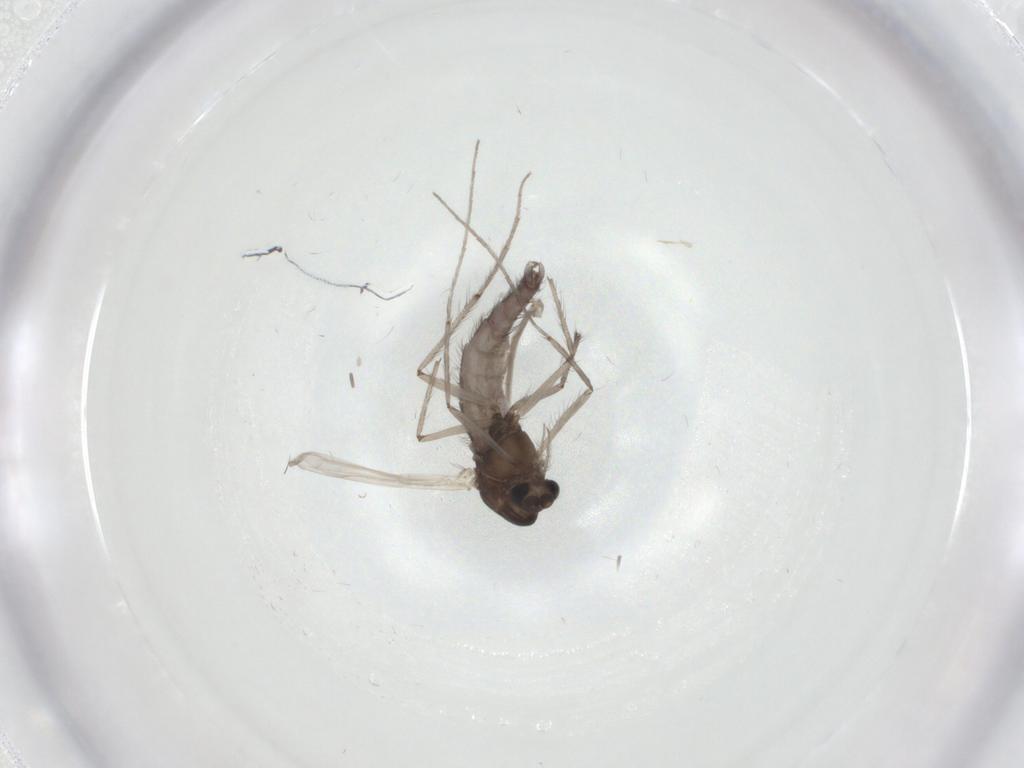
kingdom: Animalia
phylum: Arthropoda
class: Insecta
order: Diptera
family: Chironomidae
